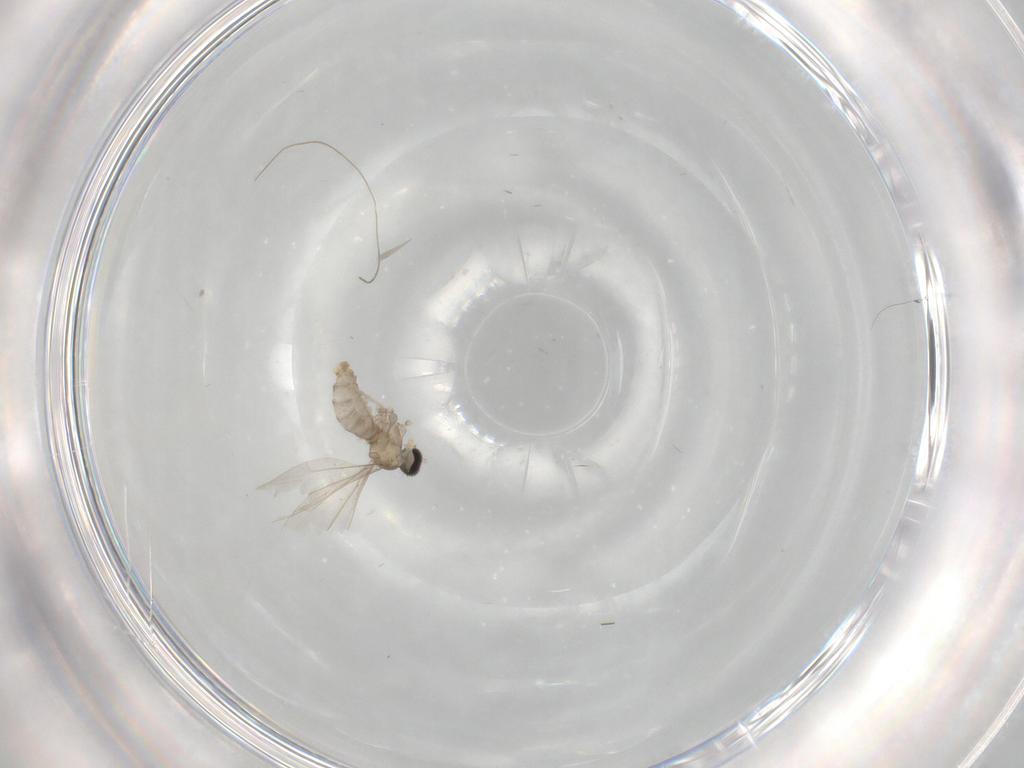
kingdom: Animalia
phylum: Arthropoda
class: Insecta
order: Diptera
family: Cecidomyiidae
